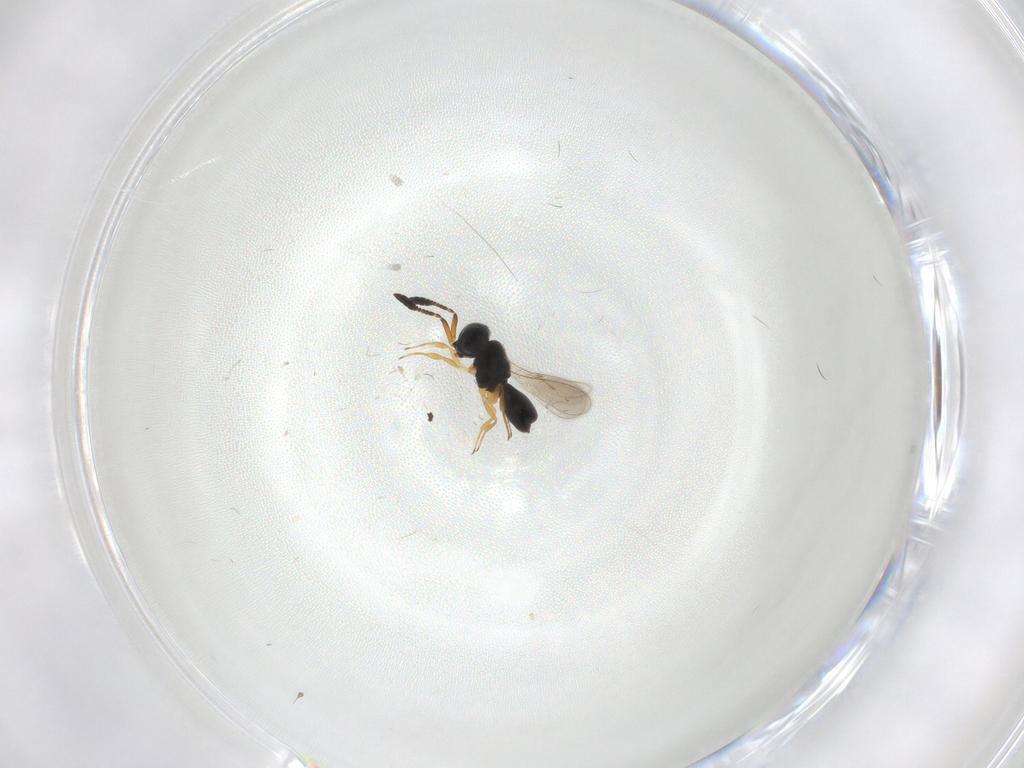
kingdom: Animalia
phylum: Arthropoda
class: Insecta
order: Hymenoptera
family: Scelionidae
